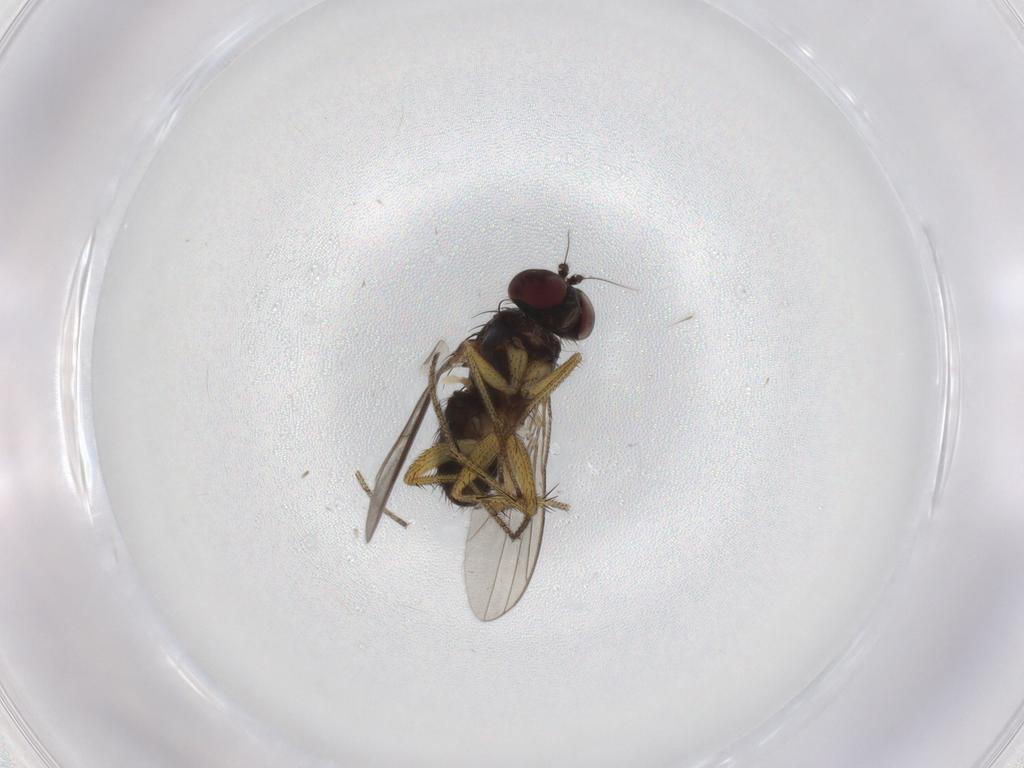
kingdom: Animalia
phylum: Arthropoda
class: Insecta
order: Diptera
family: Dolichopodidae
